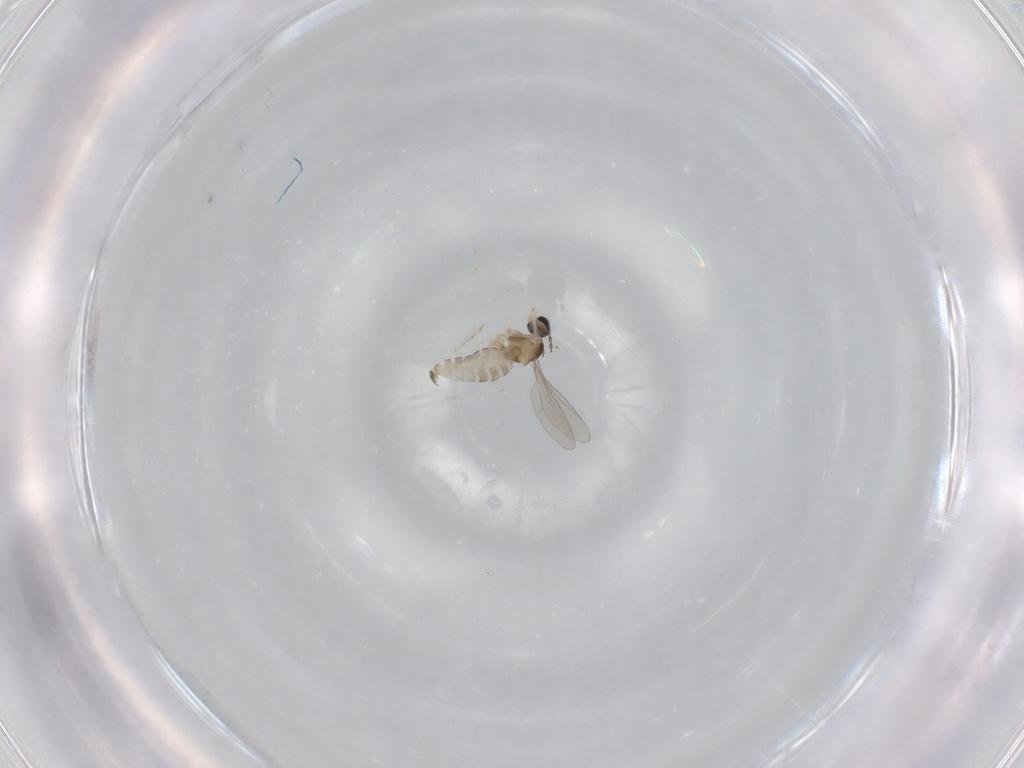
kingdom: Animalia
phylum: Arthropoda
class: Insecta
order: Diptera
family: Cecidomyiidae
